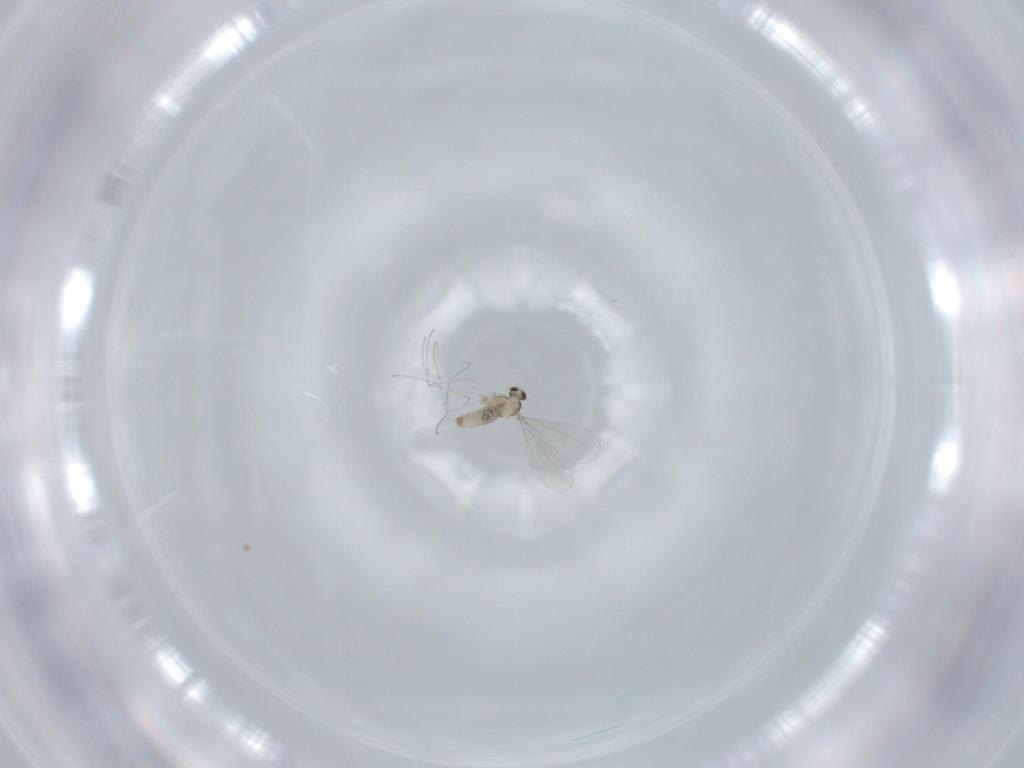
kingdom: Animalia
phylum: Arthropoda
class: Insecta
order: Diptera
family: Cecidomyiidae
